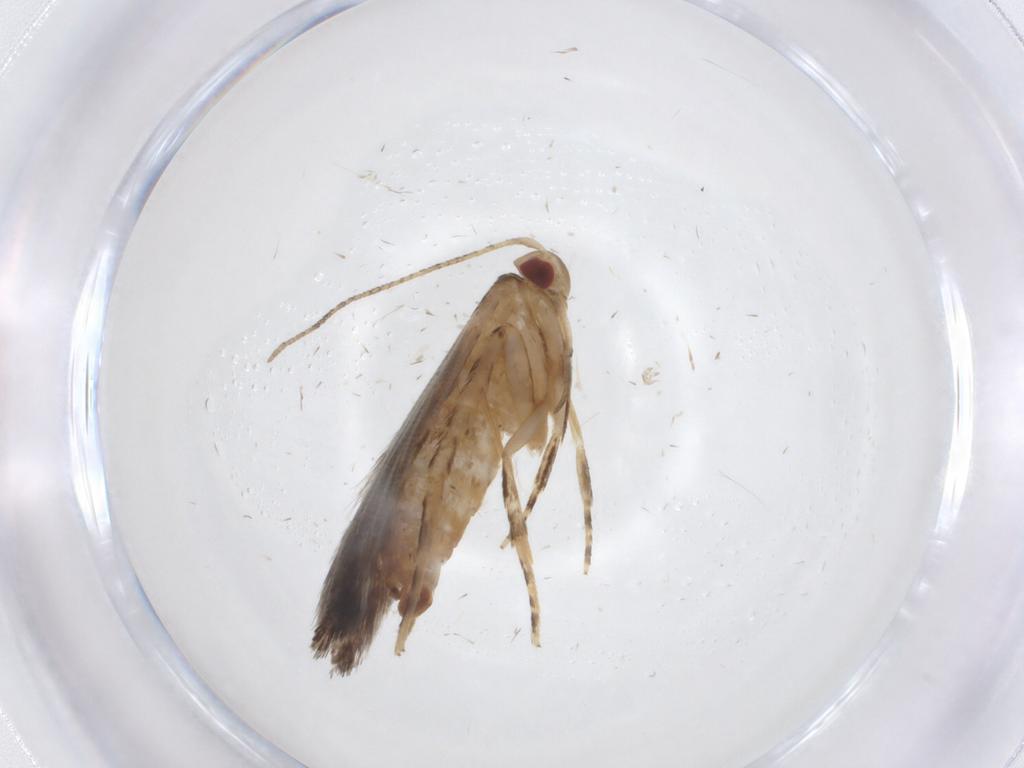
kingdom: Animalia
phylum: Arthropoda
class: Insecta
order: Lepidoptera
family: Cosmopterigidae
